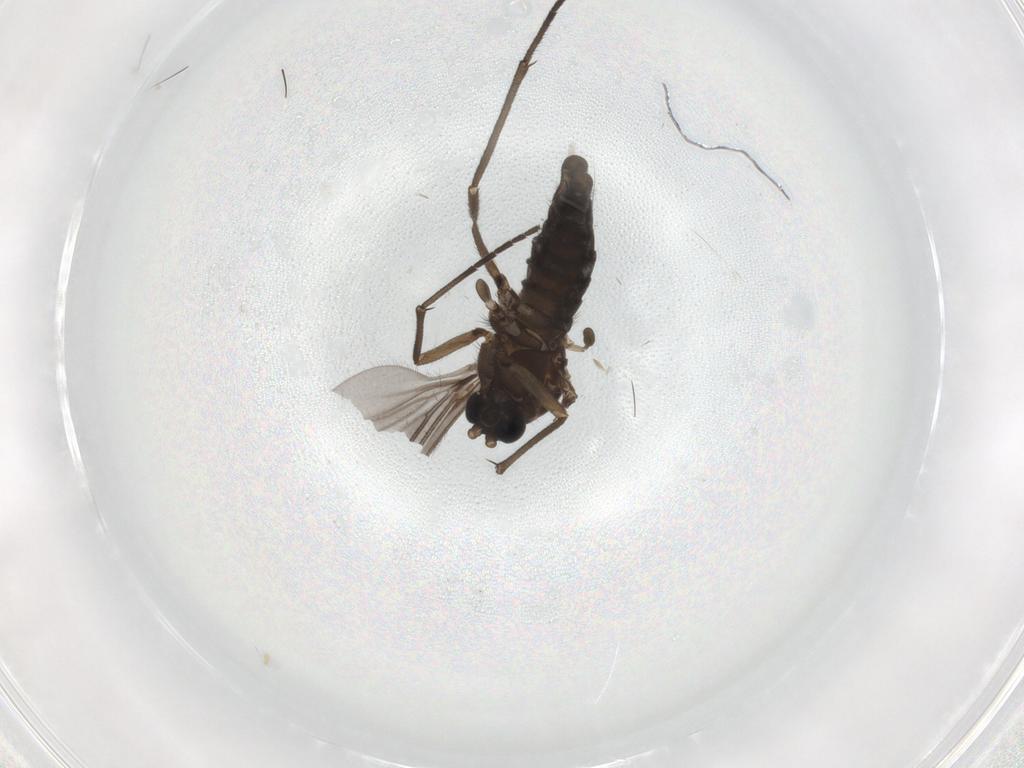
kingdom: Animalia
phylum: Arthropoda
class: Insecta
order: Diptera
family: Sciaridae
